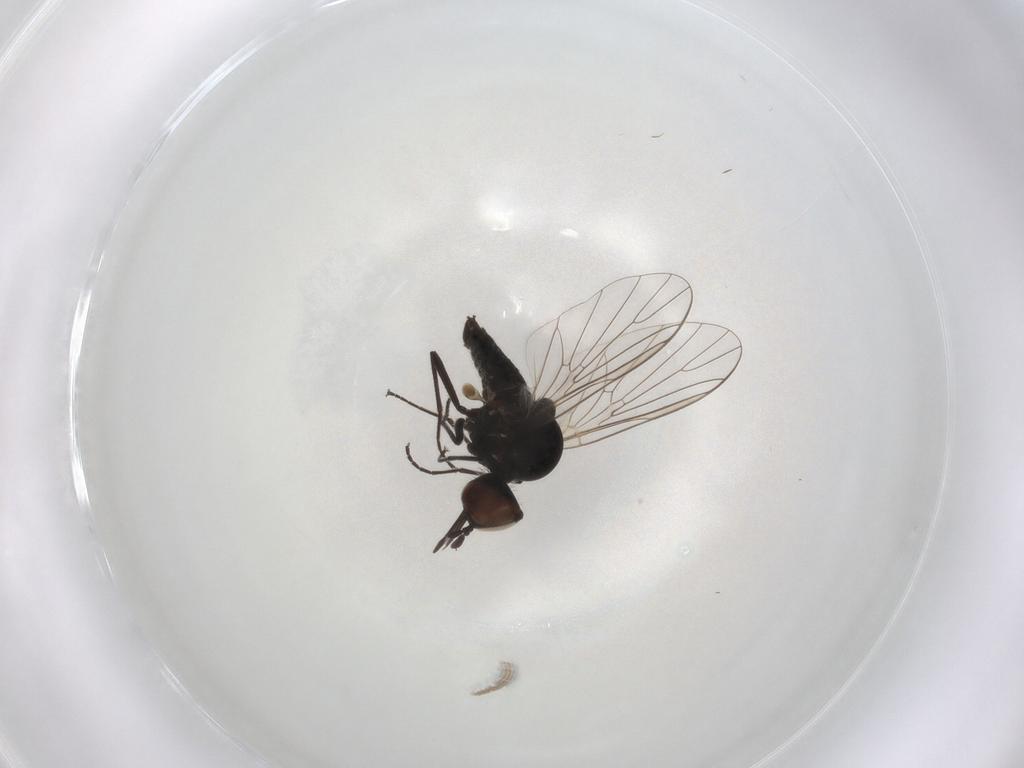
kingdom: Animalia
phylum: Arthropoda
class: Insecta
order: Diptera
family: Bombyliidae
